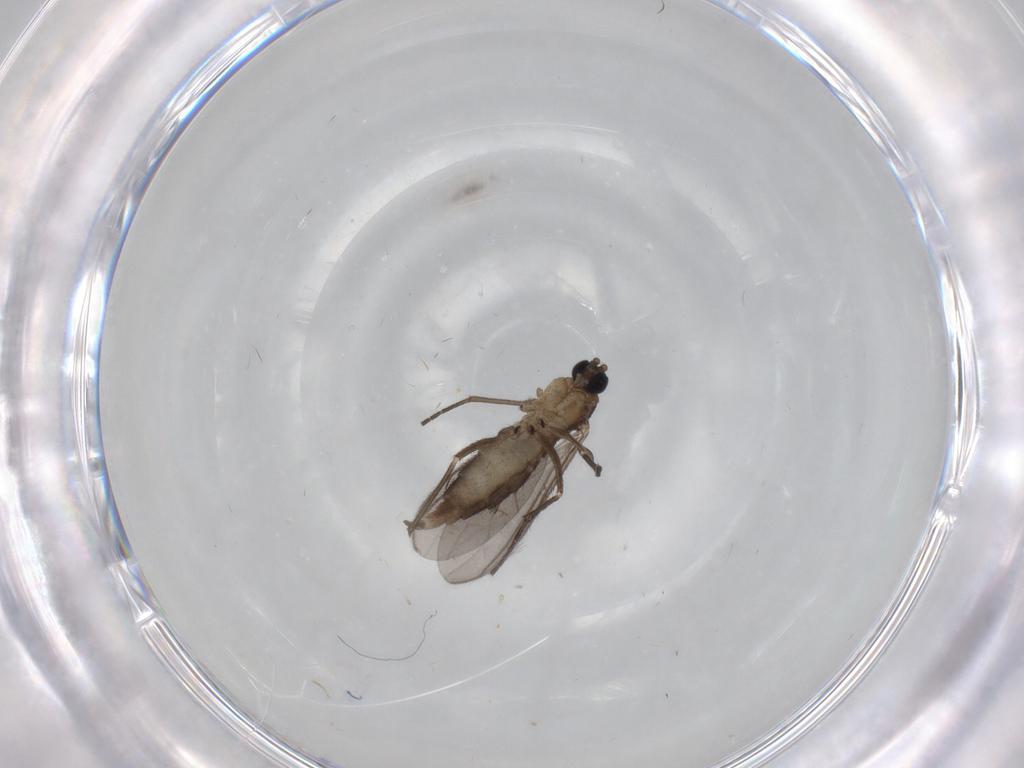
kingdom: Animalia
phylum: Arthropoda
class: Insecta
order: Diptera
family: Sciaridae
